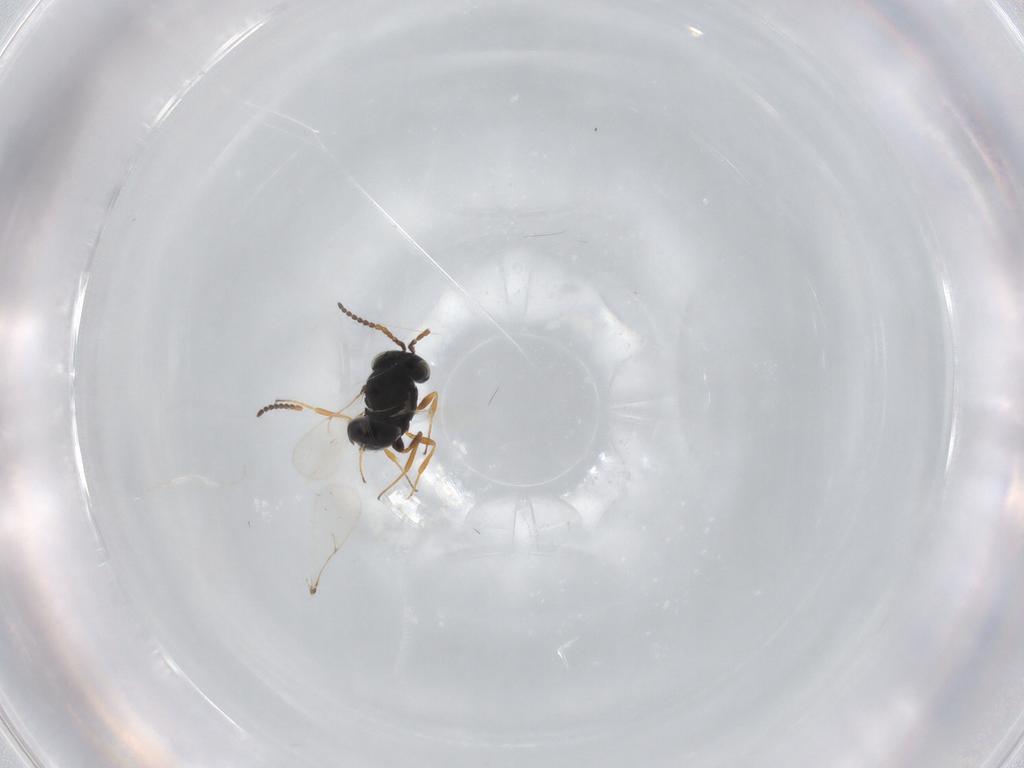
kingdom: Animalia
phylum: Arthropoda
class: Insecta
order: Hymenoptera
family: Scelionidae
